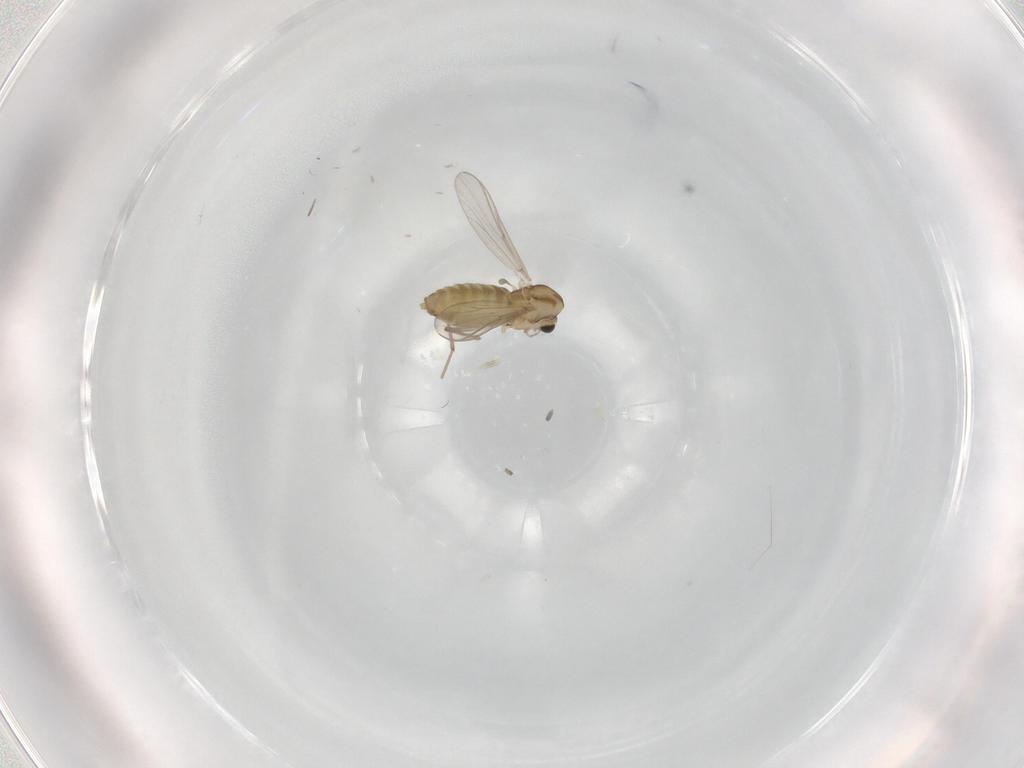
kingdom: Animalia
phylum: Arthropoda
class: Insecta
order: Diptera
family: Chironomidae
